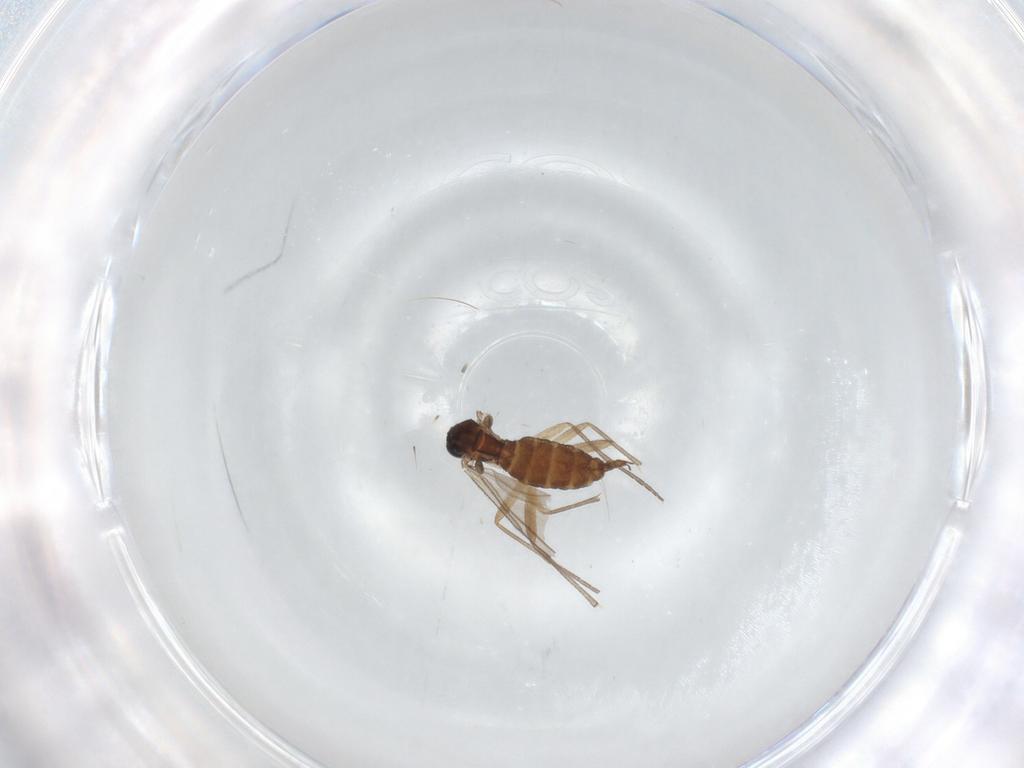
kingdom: Animalia
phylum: Arthropoda
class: Insecta
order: Diptera
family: Sciaridae
